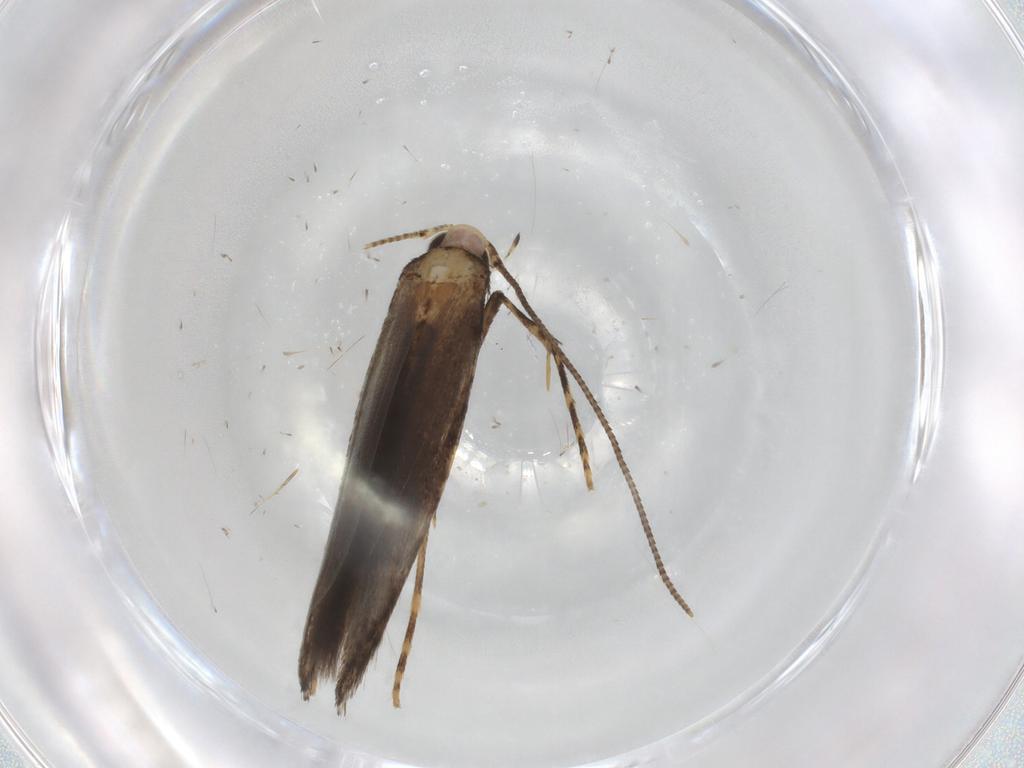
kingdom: Animalia
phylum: Arthropoda
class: Insecta
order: Lepidoptera
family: Gracillariidae
